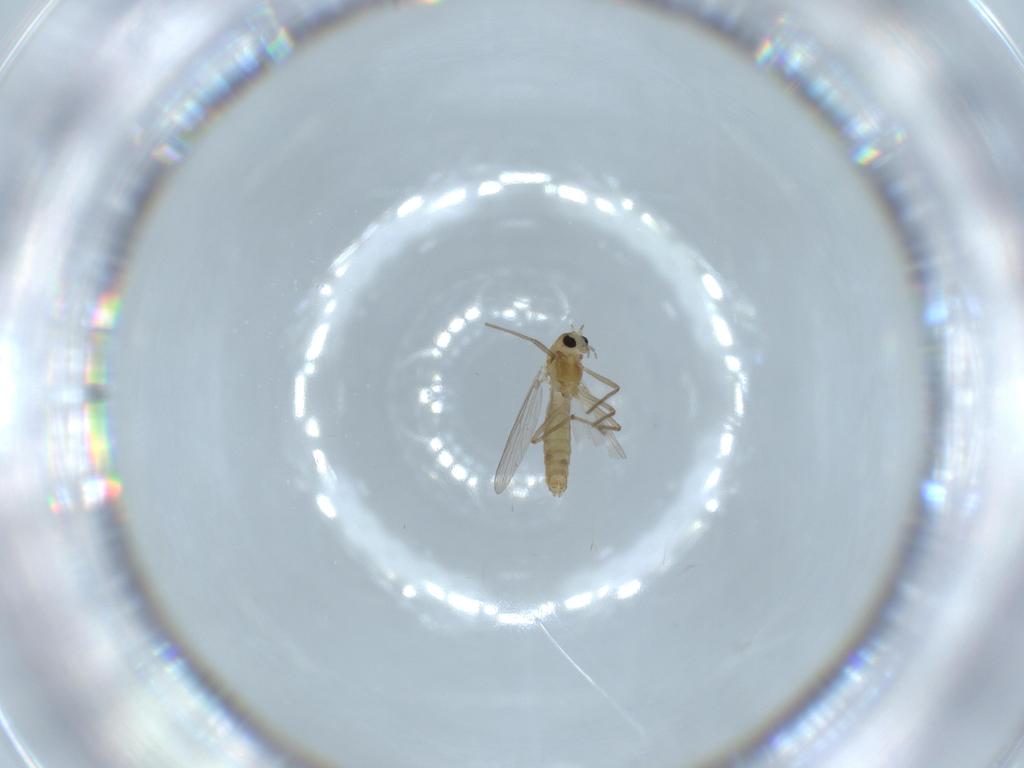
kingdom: Animalia
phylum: Arthropoda
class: Insecta
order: Diptera
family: Chironomidae
